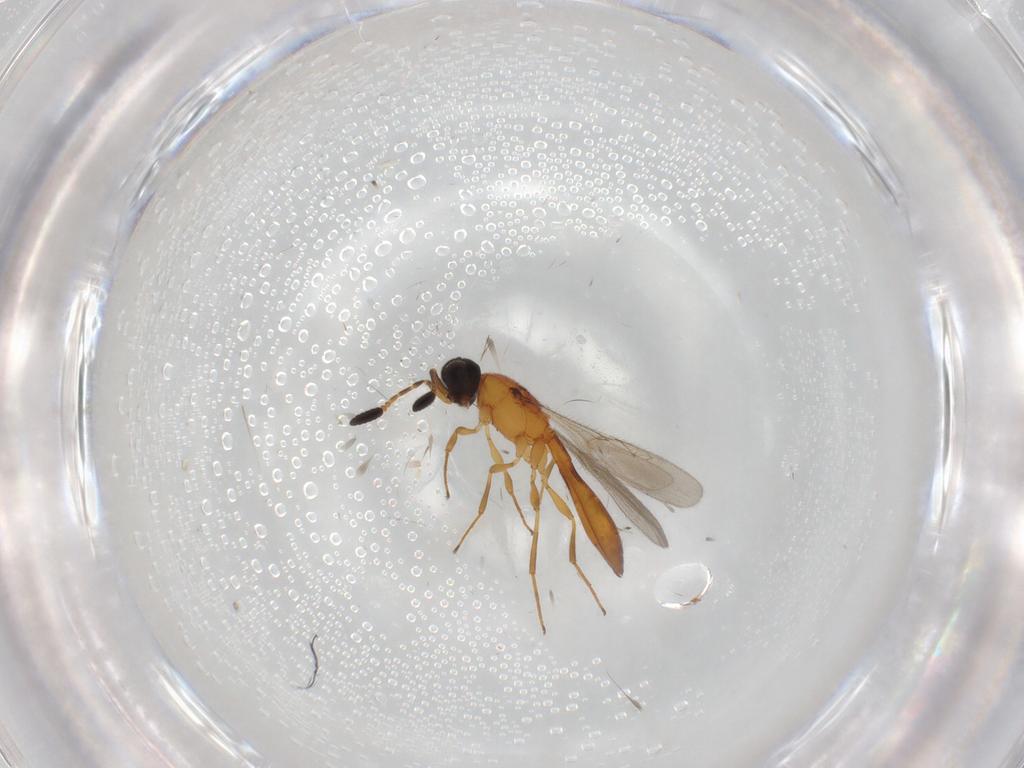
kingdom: Animalia
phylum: Arthropoda
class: Insecta
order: Hymenoptera
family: Scelionidae
